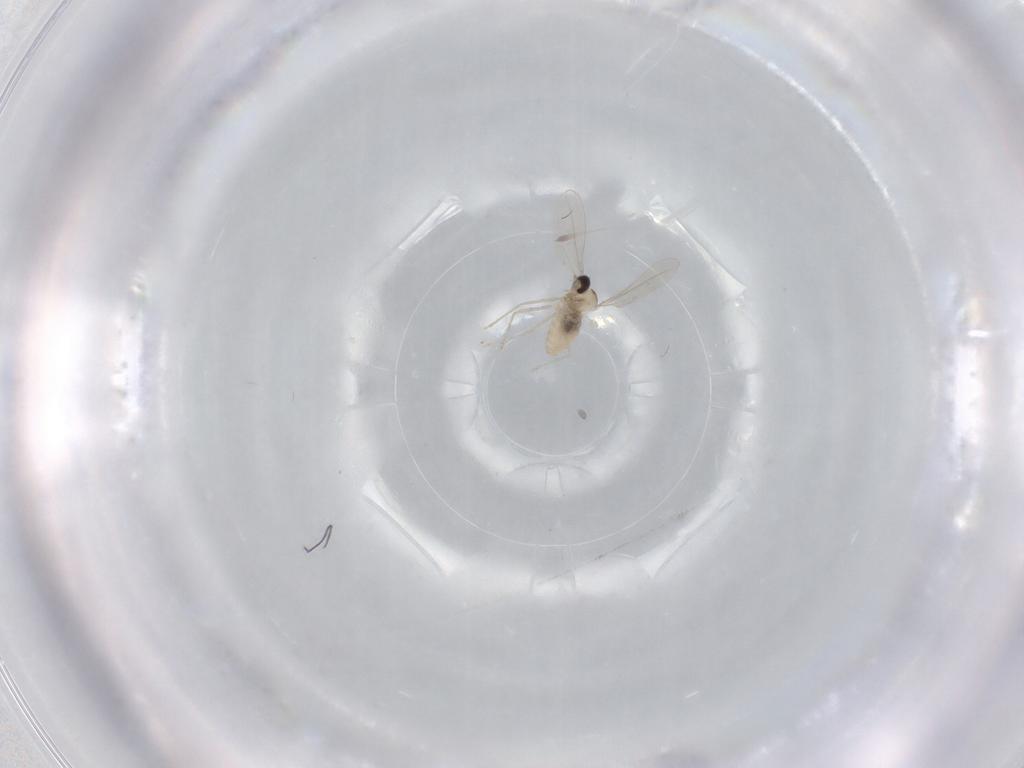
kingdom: Animalia
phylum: Arthropoda
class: Insecta
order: Diptera
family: Cecidomyiidae
